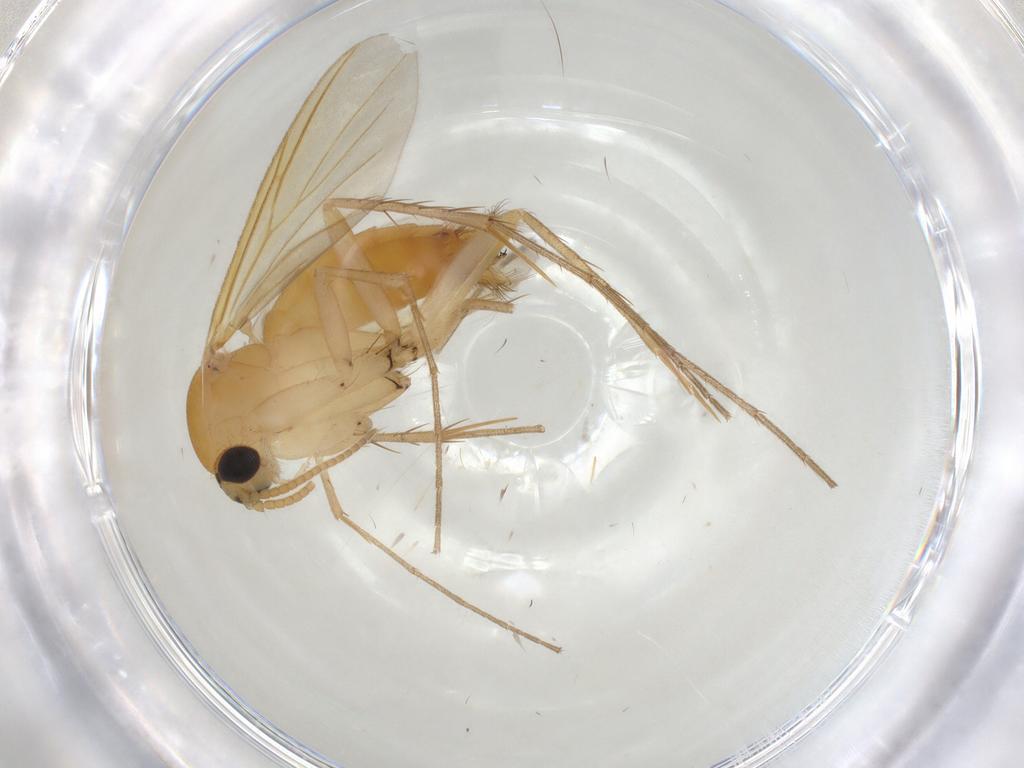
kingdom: Animalia
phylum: Arthropoda
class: Insecta
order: Diptera
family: Mycetophilidae
